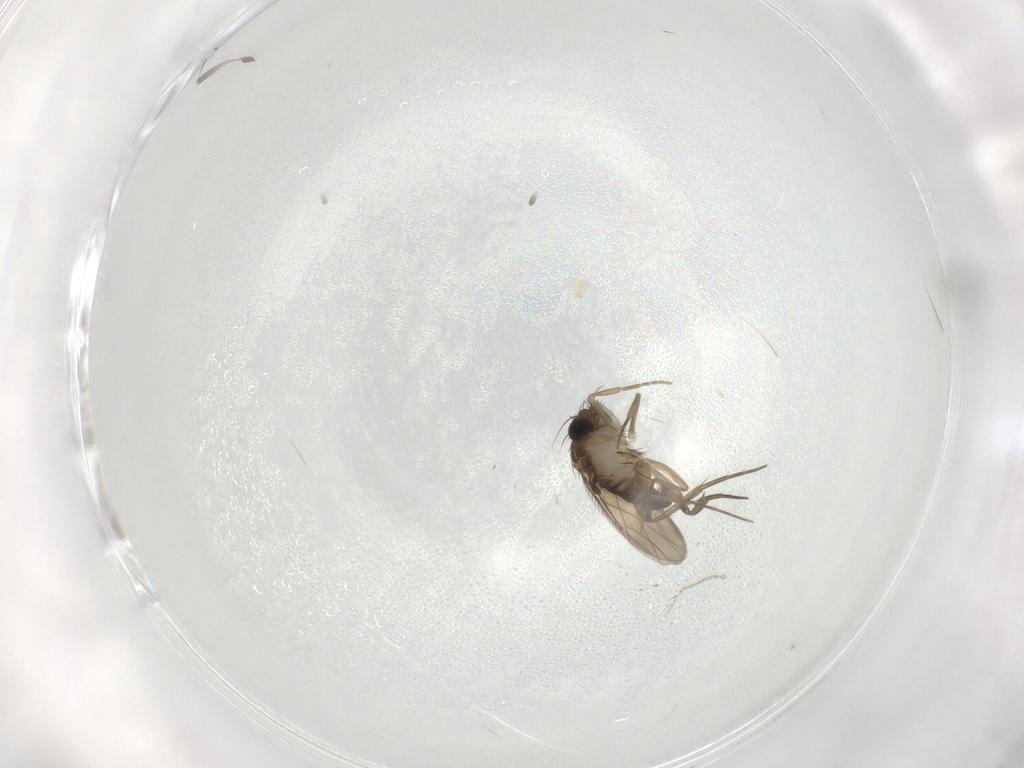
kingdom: Animalia
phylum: Arthropoda
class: Insecta
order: Diptera
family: Phoridae
